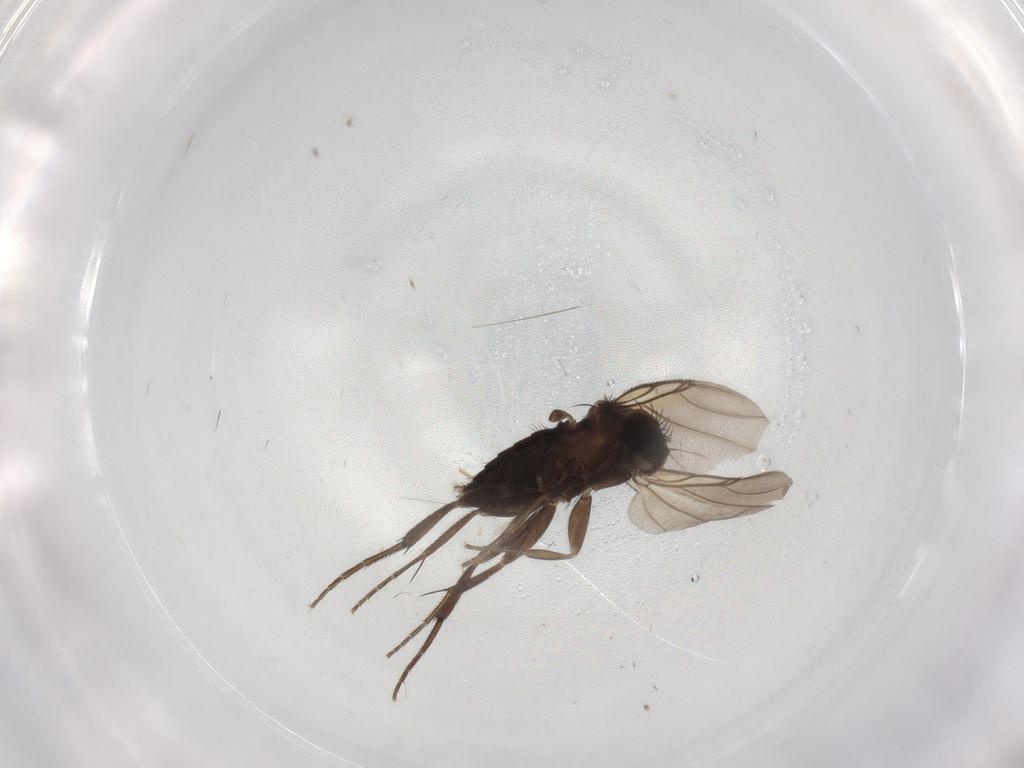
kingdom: Animalia
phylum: Arthropoda
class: Insecta
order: Diptera
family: Phoridae
